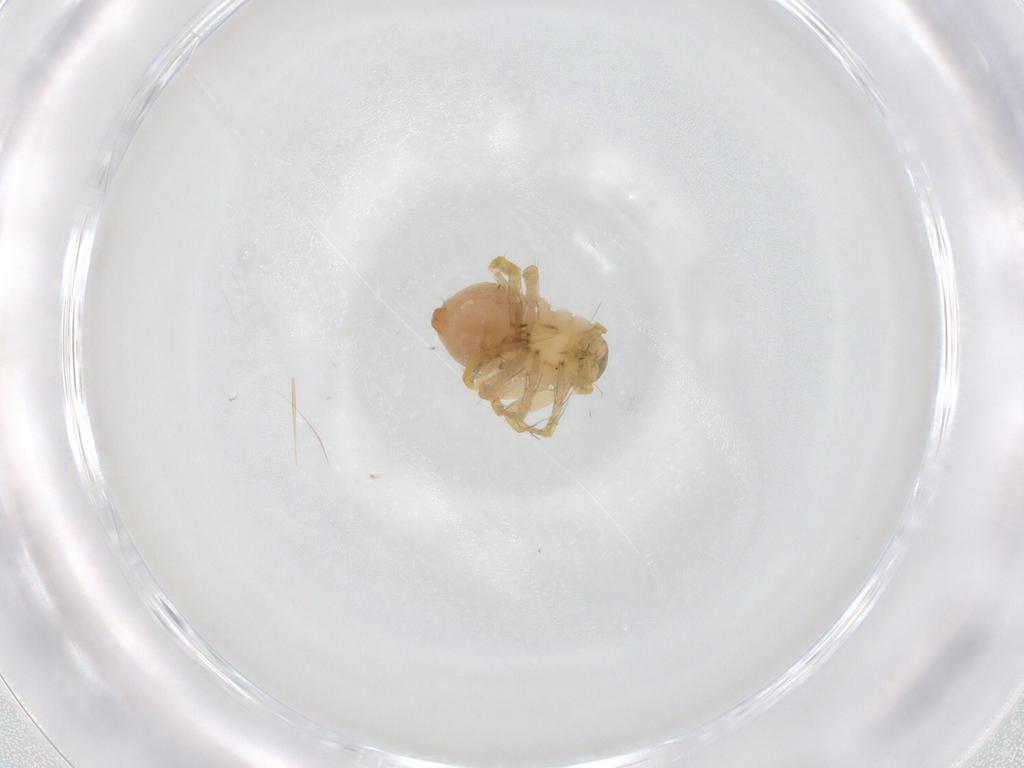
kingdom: Animalia
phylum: Arthropoda
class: Arachnida
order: Araneae
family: Oxyopidae
